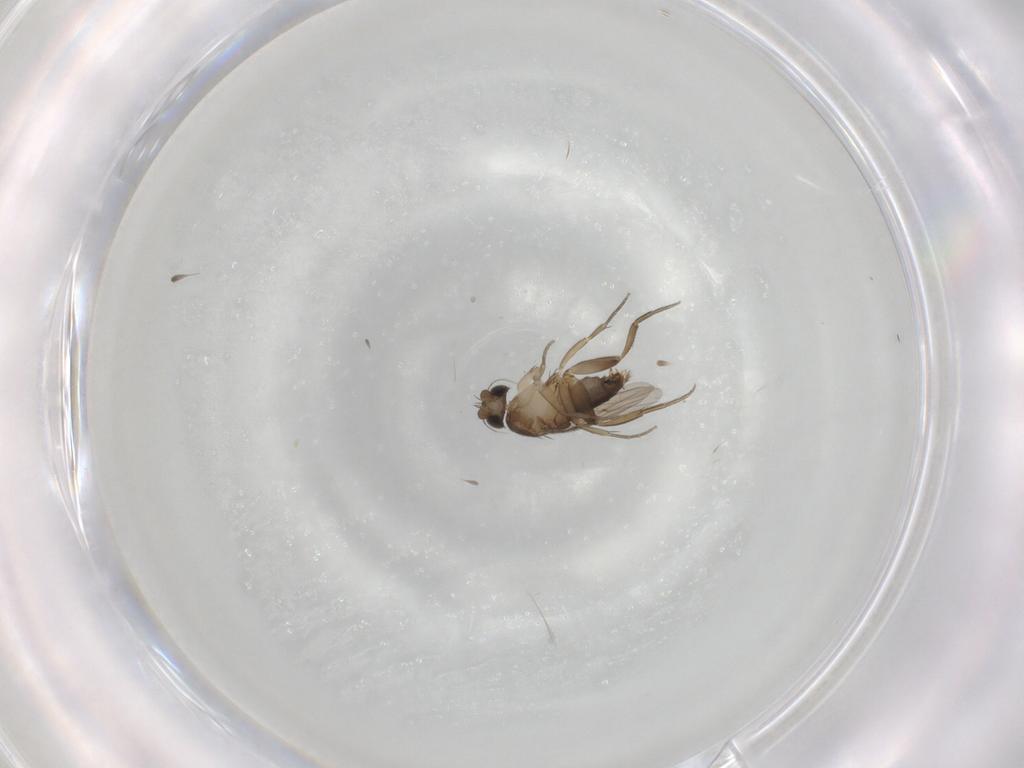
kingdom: Animalia
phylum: Arthropoda
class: Insecta
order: Diptera
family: Phoridae
